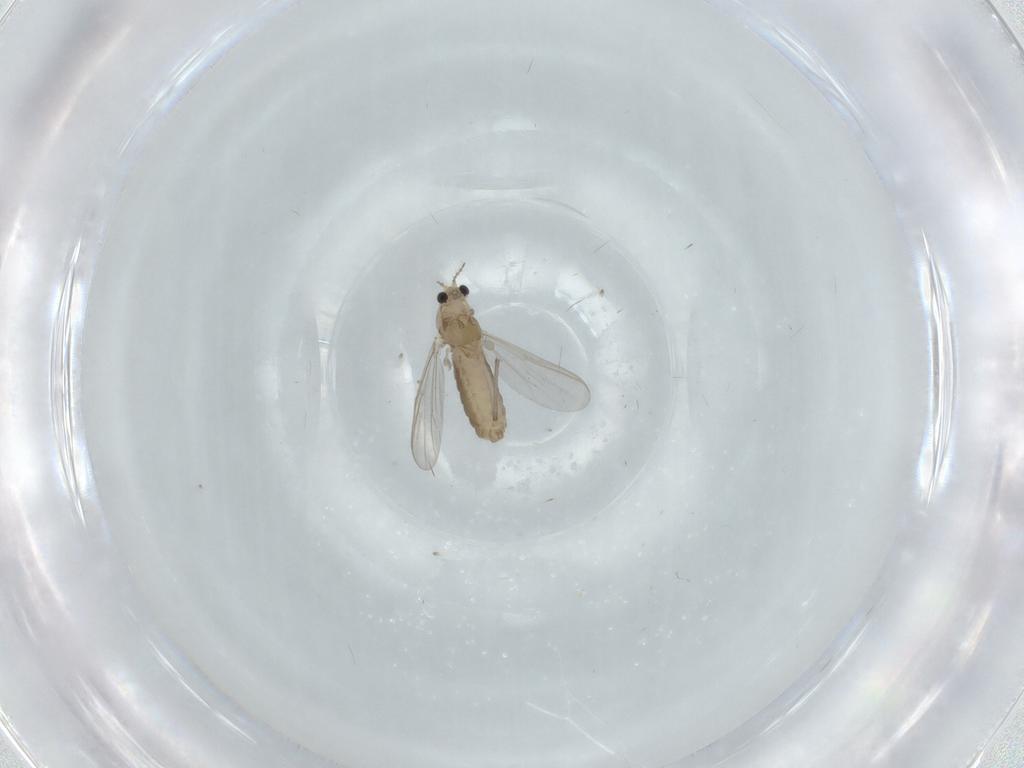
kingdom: Animalia
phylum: Arthropoda
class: Insecta
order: Diptera
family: Chironomidae
